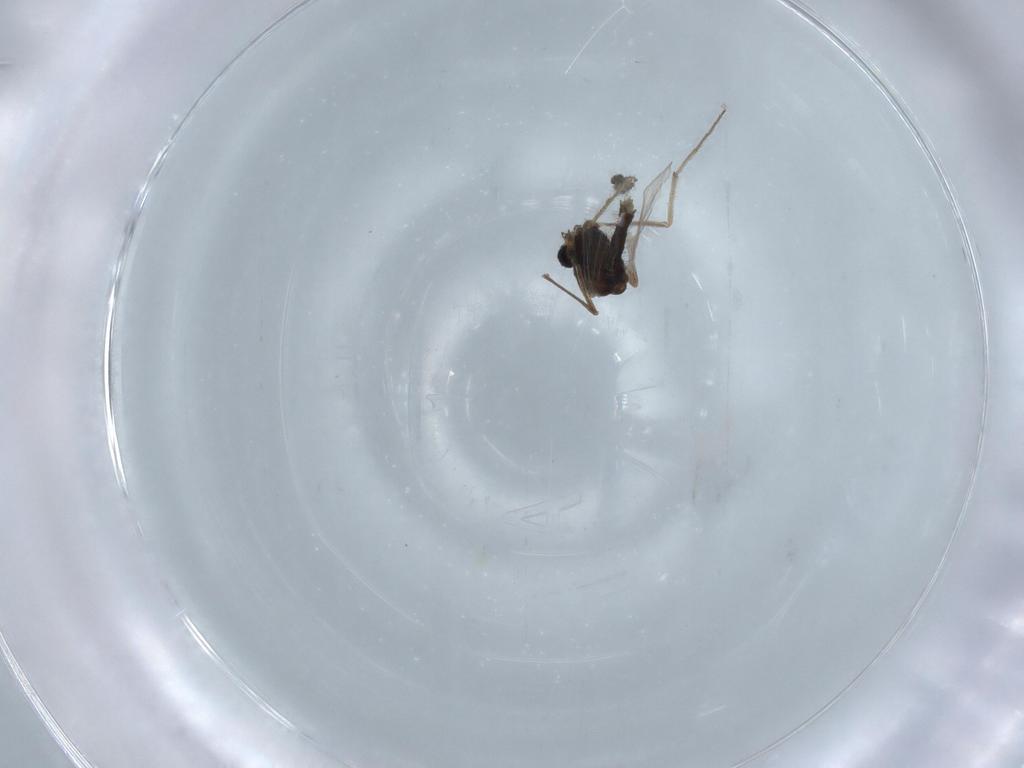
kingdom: Animalia
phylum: Arthropoda
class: Insecta
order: Diptera
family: Chironomidae
